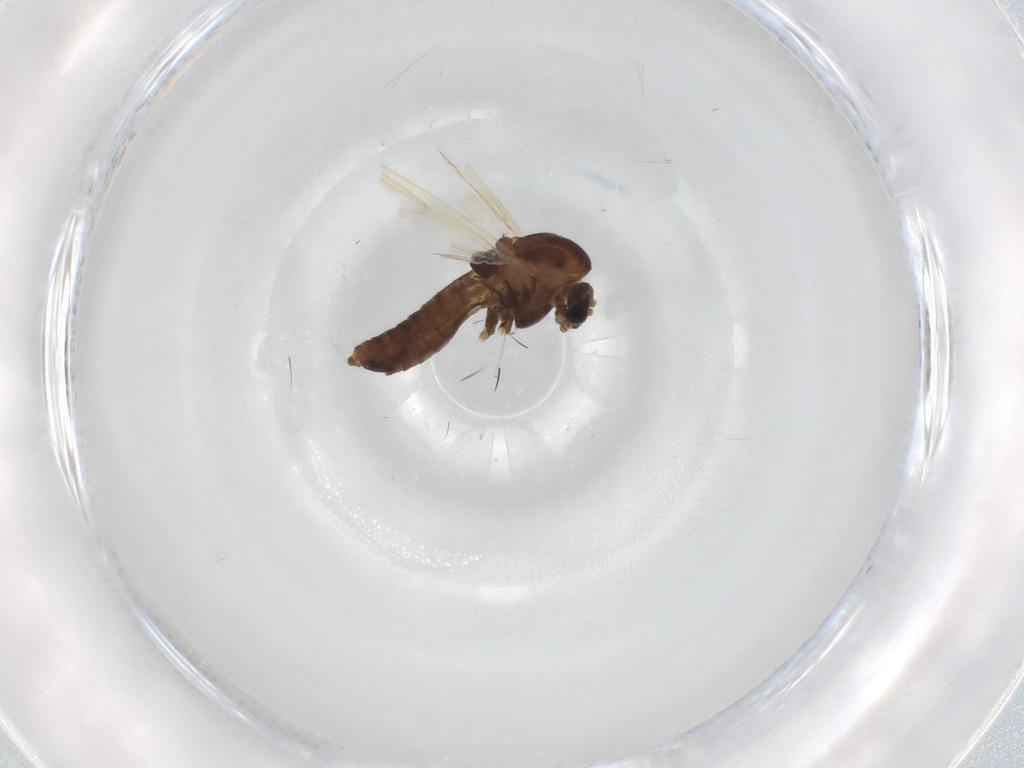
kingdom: Animalia
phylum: Arthropoda
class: Insecta
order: Diptera
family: Chironomidae
